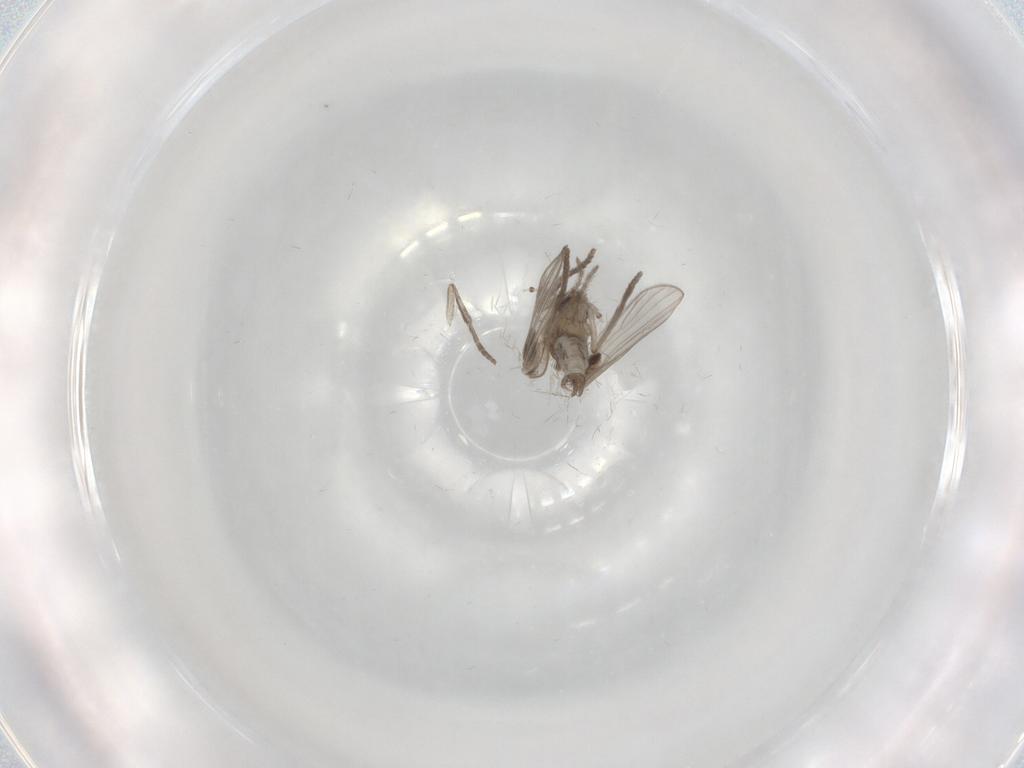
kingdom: Animalia
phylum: Arthropoda
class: Insecta
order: Diptera
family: Psychodidae
